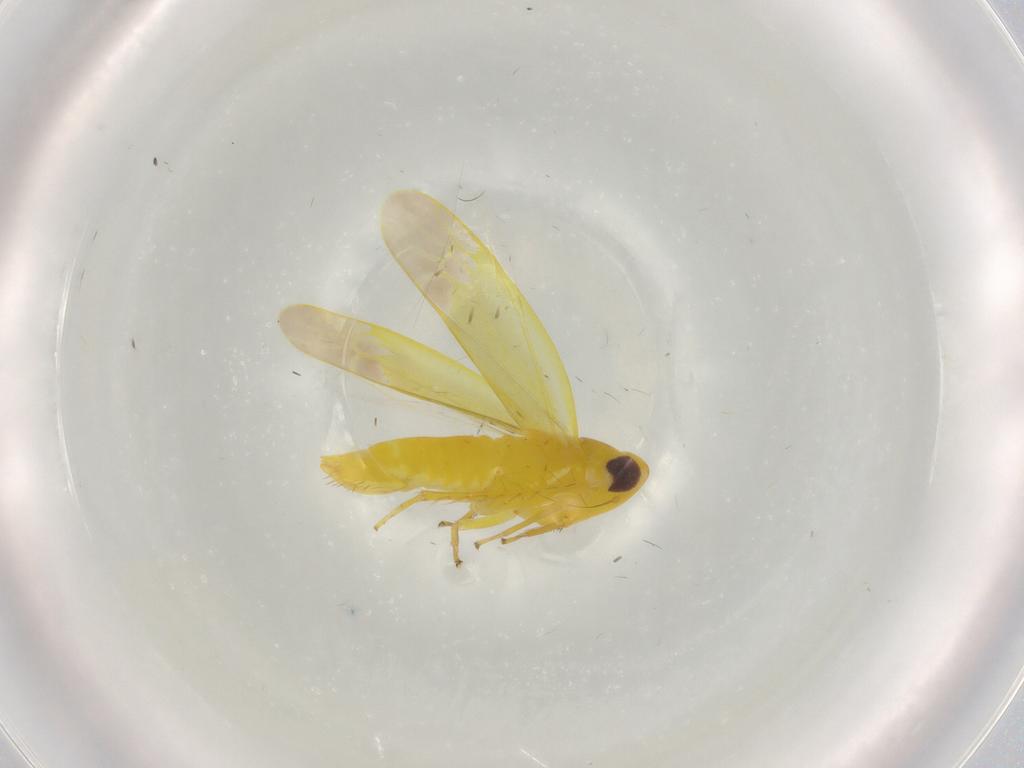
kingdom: Animalia
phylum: Arthropoda
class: Insecta
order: Hemiptera
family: Cicadellidae
